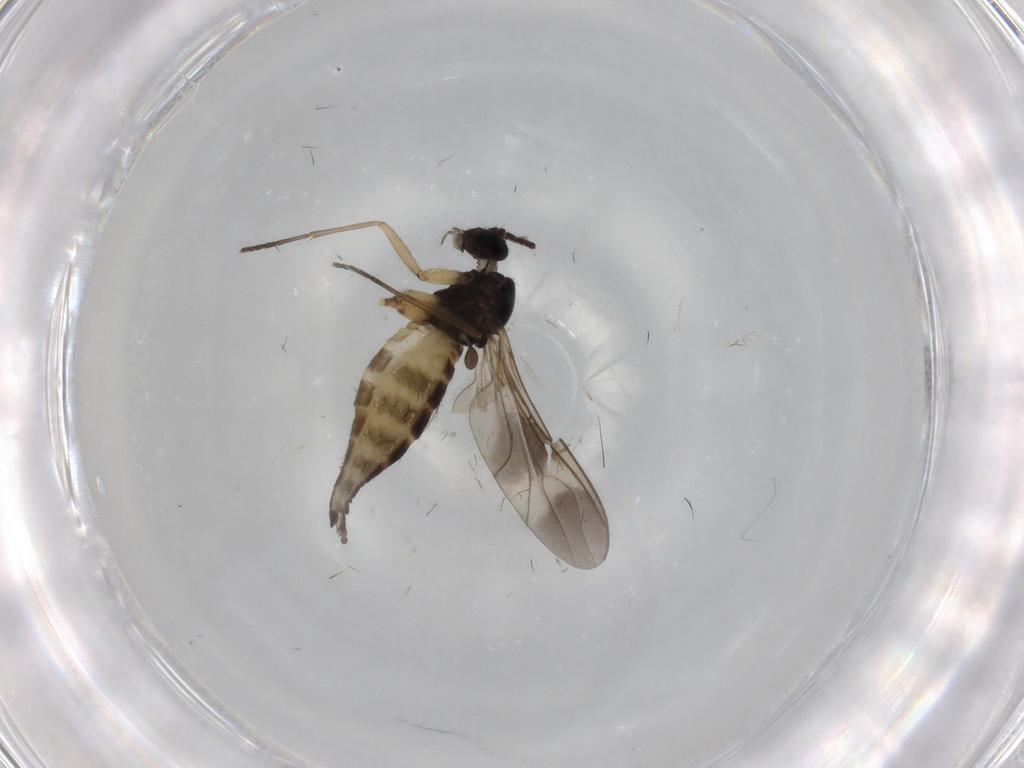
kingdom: Animalia
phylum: Arthropoda
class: Insecta
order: Diptera
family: Sciaridae
